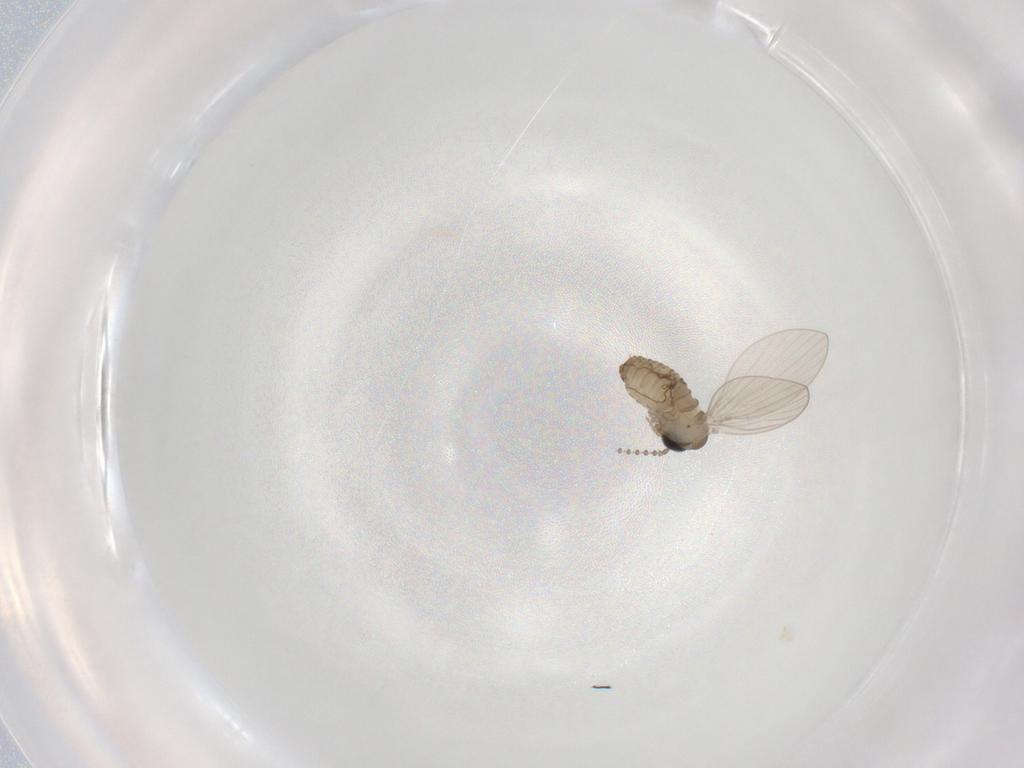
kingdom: Animalia
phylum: Arthropoda
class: Insecta
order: Diptera
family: Psychodidae
